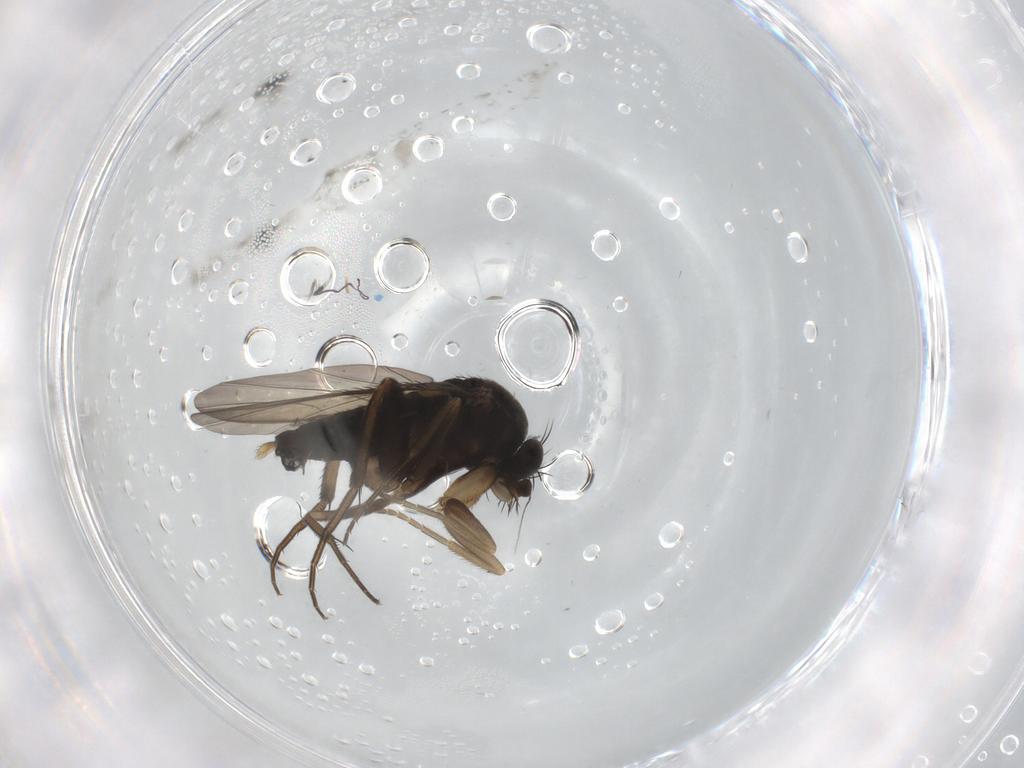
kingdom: Animalia
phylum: Arthropoda
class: Insecta
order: Diptera
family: Phoridae
